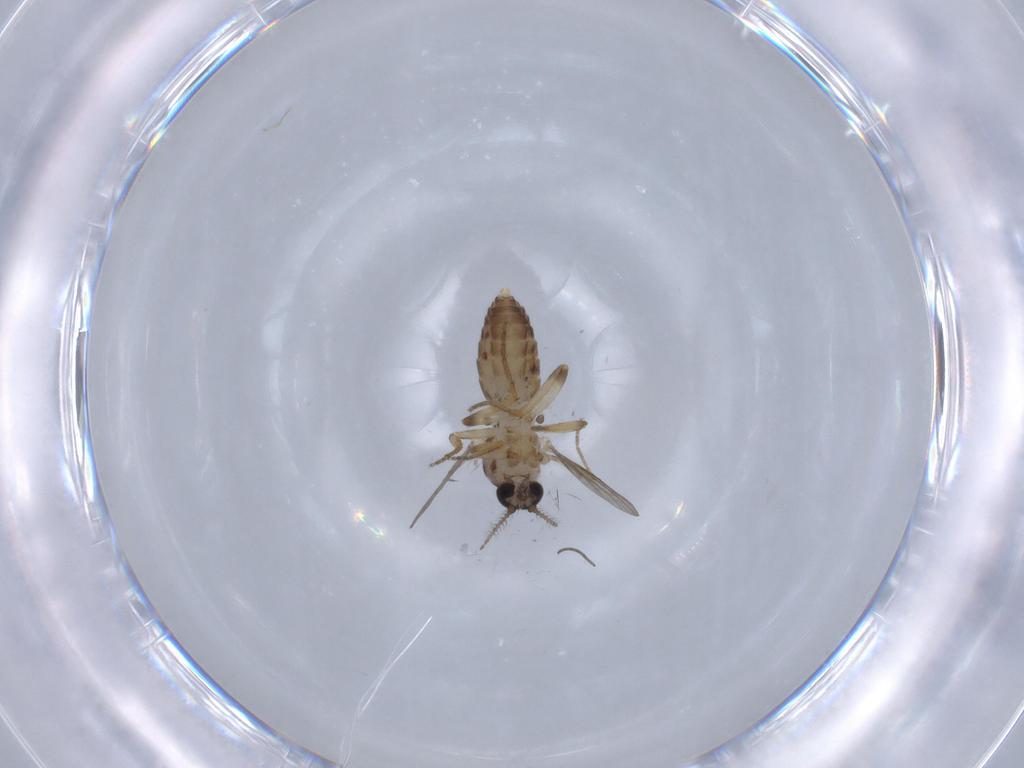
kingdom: Animalia
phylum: Arthropoda
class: Insecta
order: Diptera
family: Ceratopogonidae
